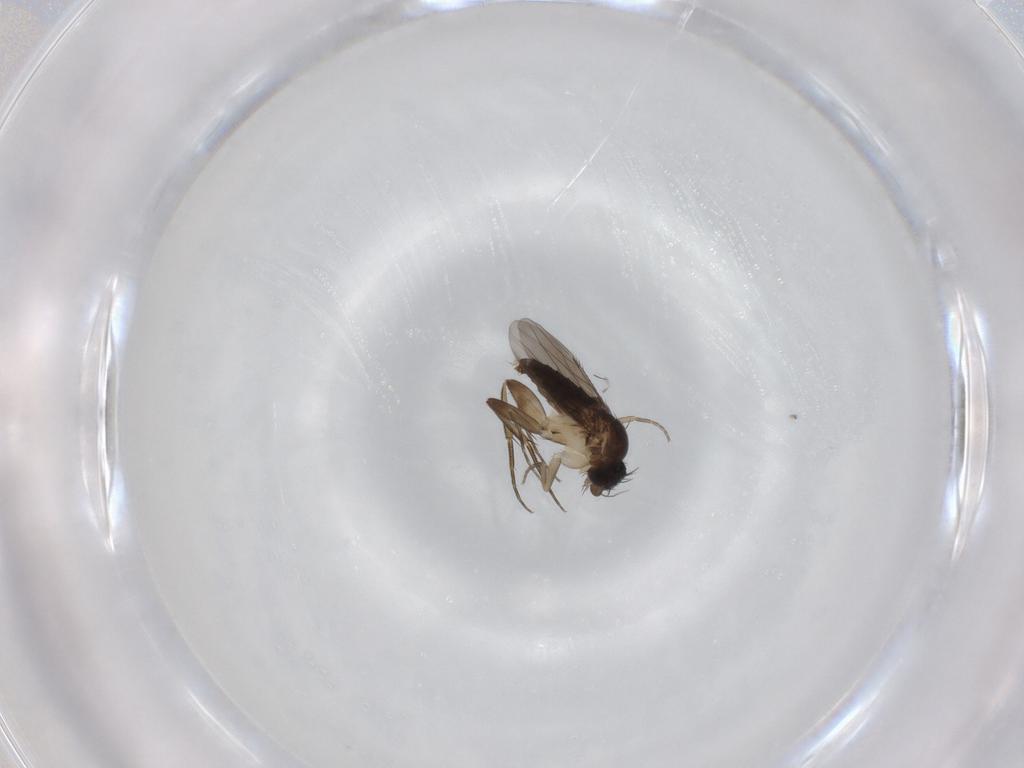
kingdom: Animalia
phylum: Arthropoda
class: Insecta
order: Diptera
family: Phoridae
